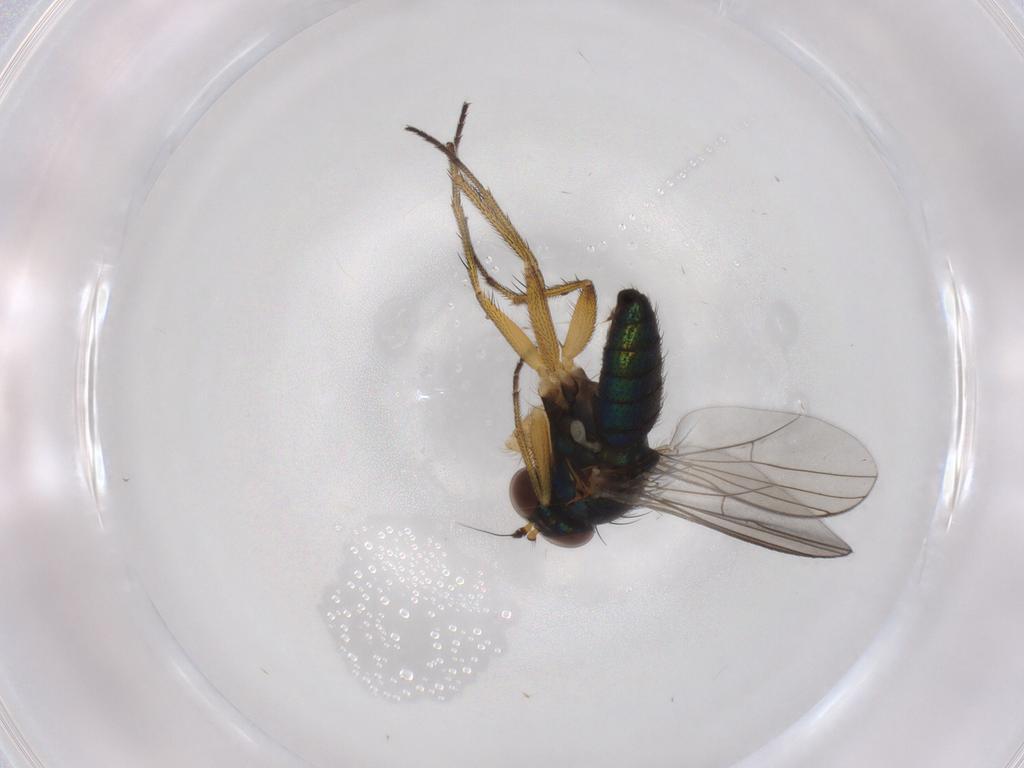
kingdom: Animalia
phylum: Arthropoda
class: Insecta
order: Diptera
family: Dolichopodidae
